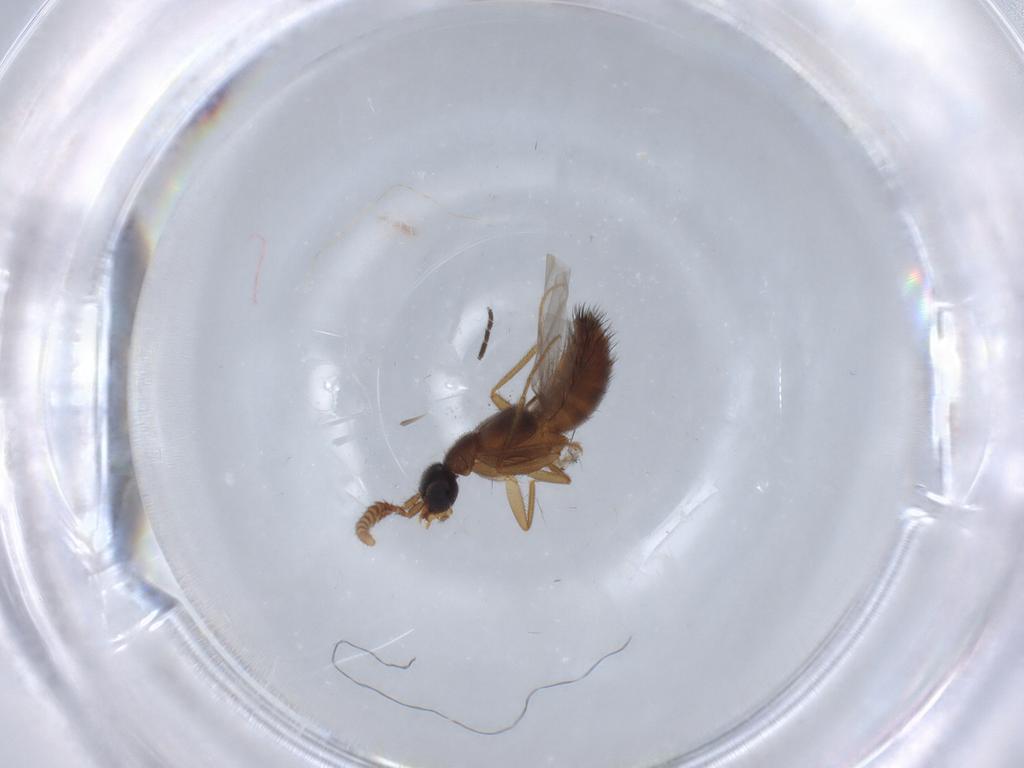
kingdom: Animalia
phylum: Arthropoda
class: Insecta
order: Coleoptera
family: Staphylinidae
